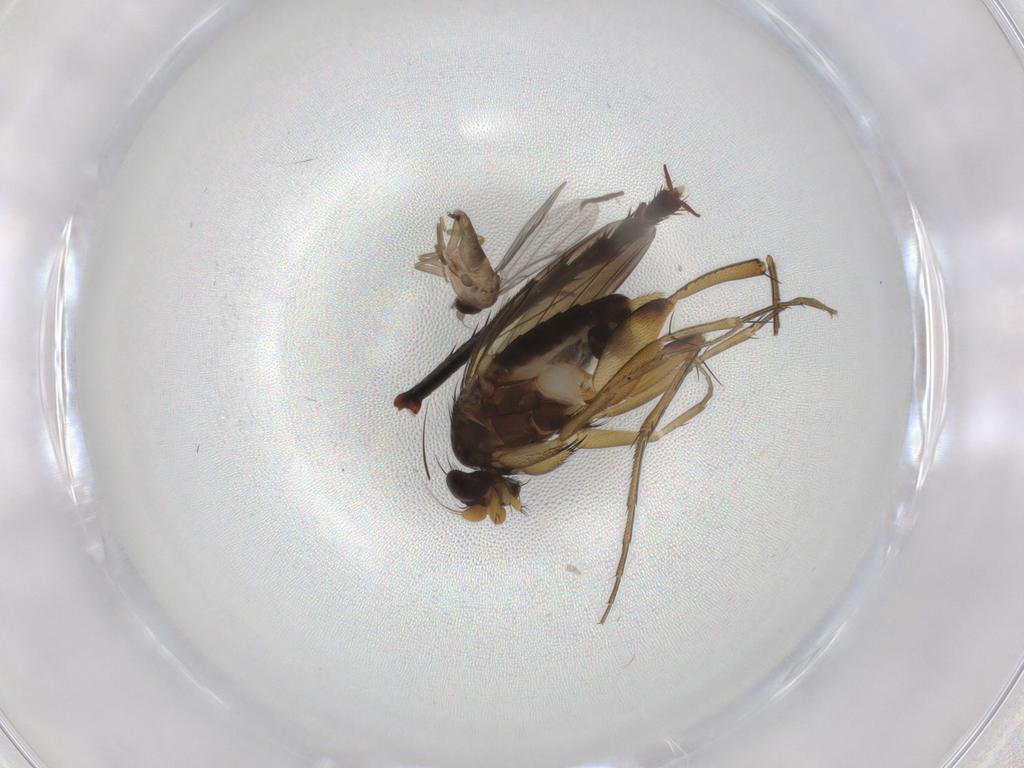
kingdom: Animalia
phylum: Arthropoda
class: Insecta
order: Diptera
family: Phoridae
